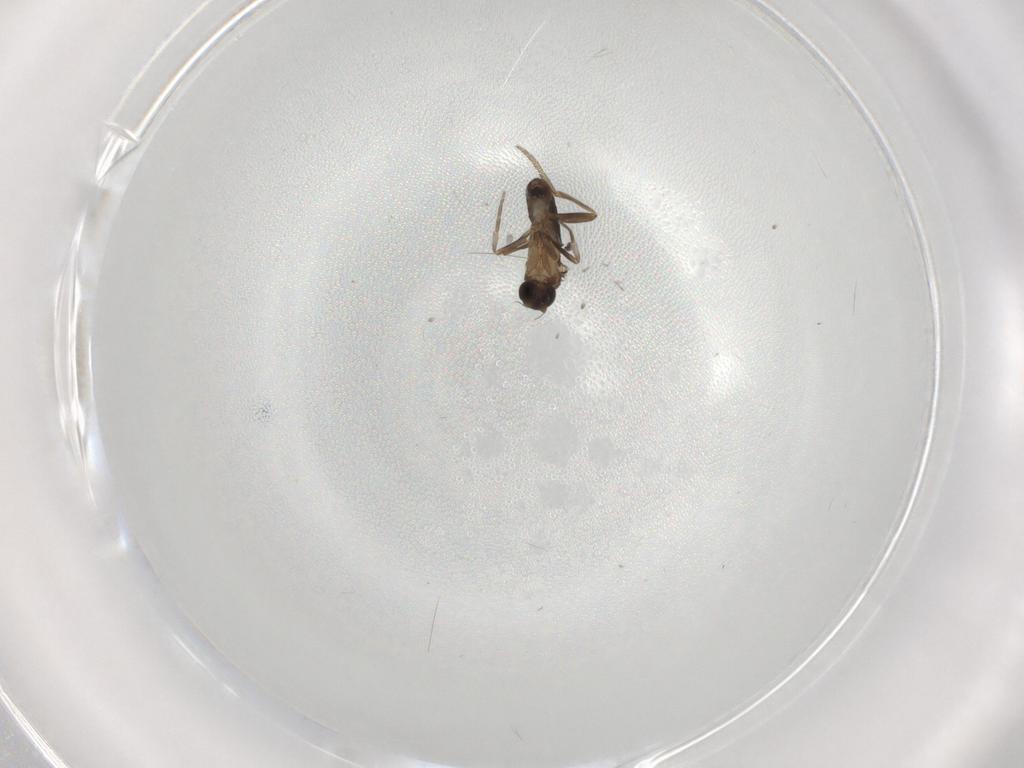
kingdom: Animalia
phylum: Arthropoda
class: Insecta
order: Diptera
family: Phoridae
